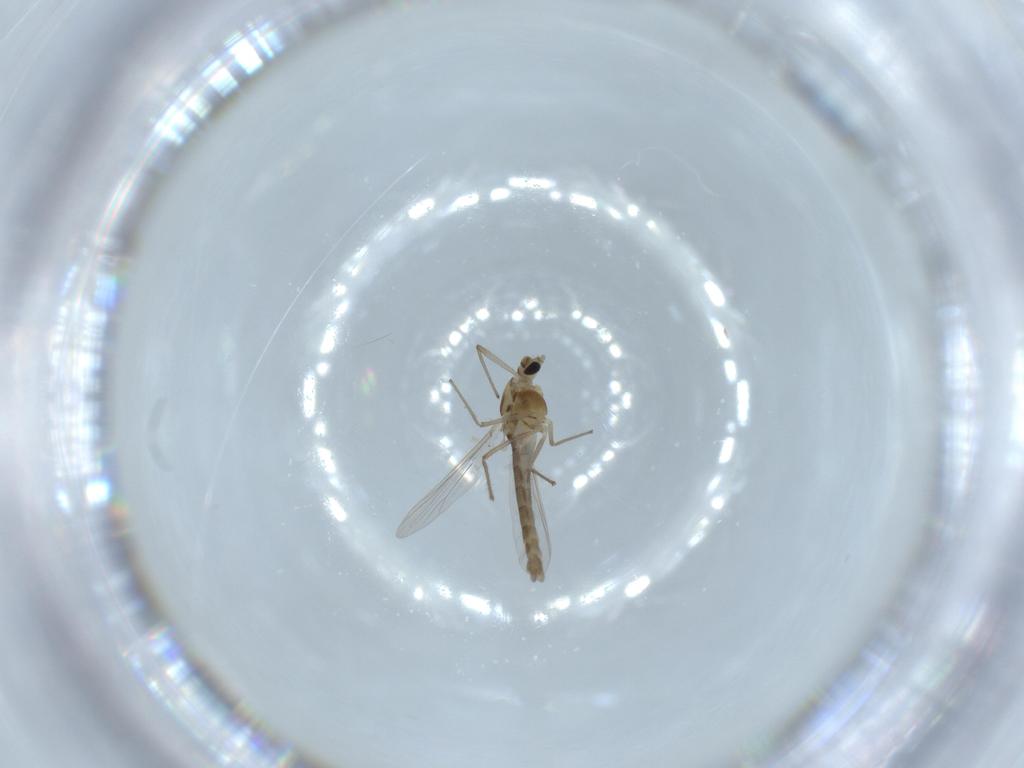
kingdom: Animalia
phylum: Arthropoda
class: Insecta
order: Diptera
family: Chironomidae
